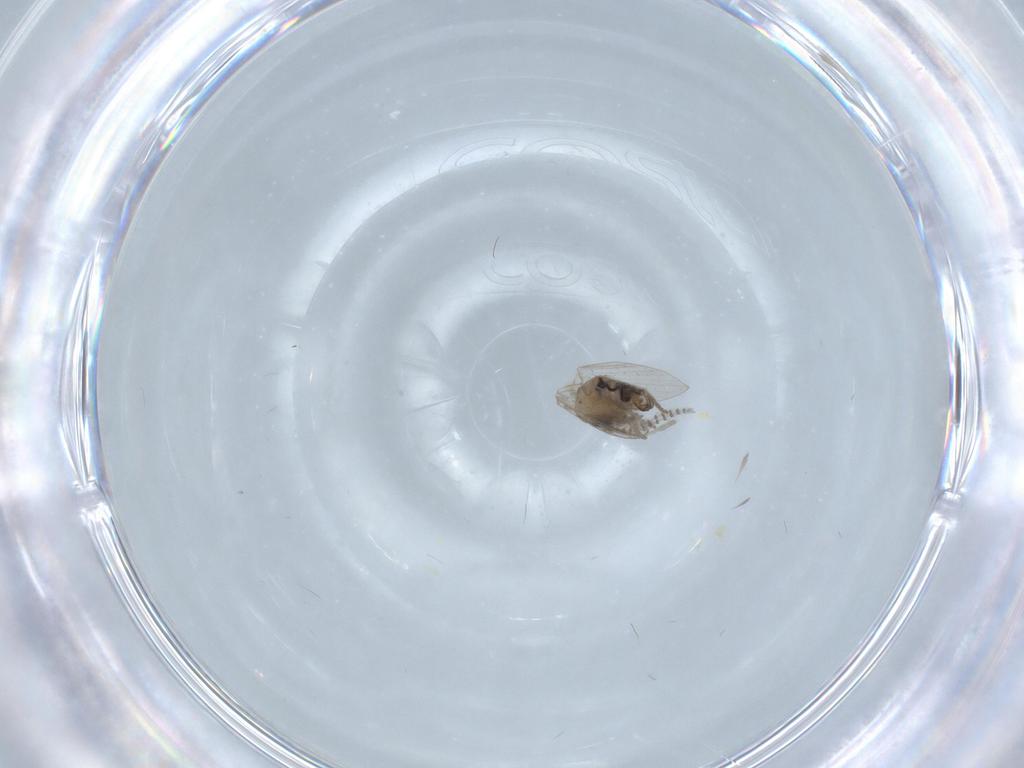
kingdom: Animalia
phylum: Arthropoda
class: Insecta
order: Diptera
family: Psychodidae
